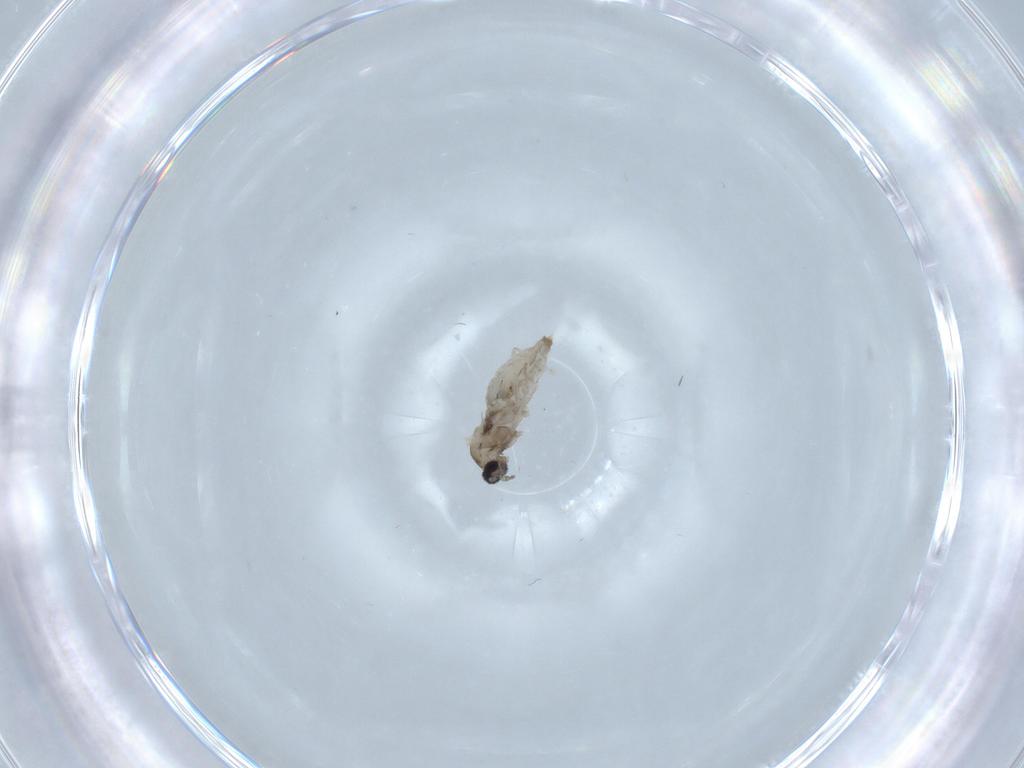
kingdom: Animalia
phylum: Arthropoda
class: Insecta
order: Diptera
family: Cecidomyiidae
